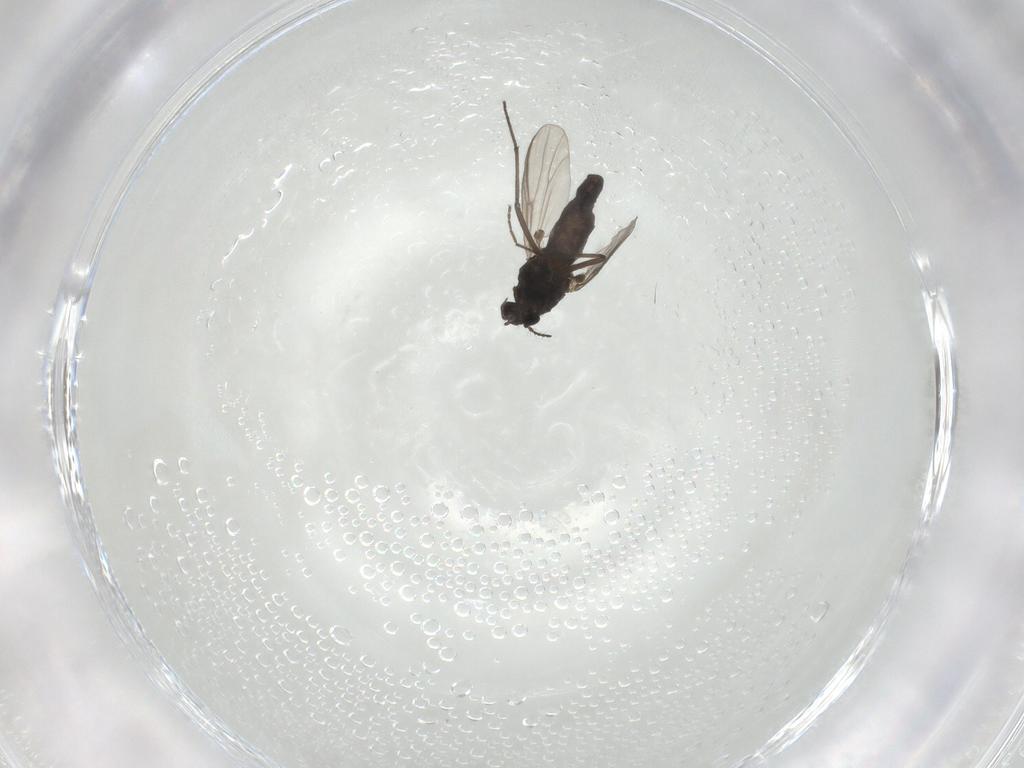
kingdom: Animalia
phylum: Arthropoda
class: Insecta
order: Diptera
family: Chironomidae
